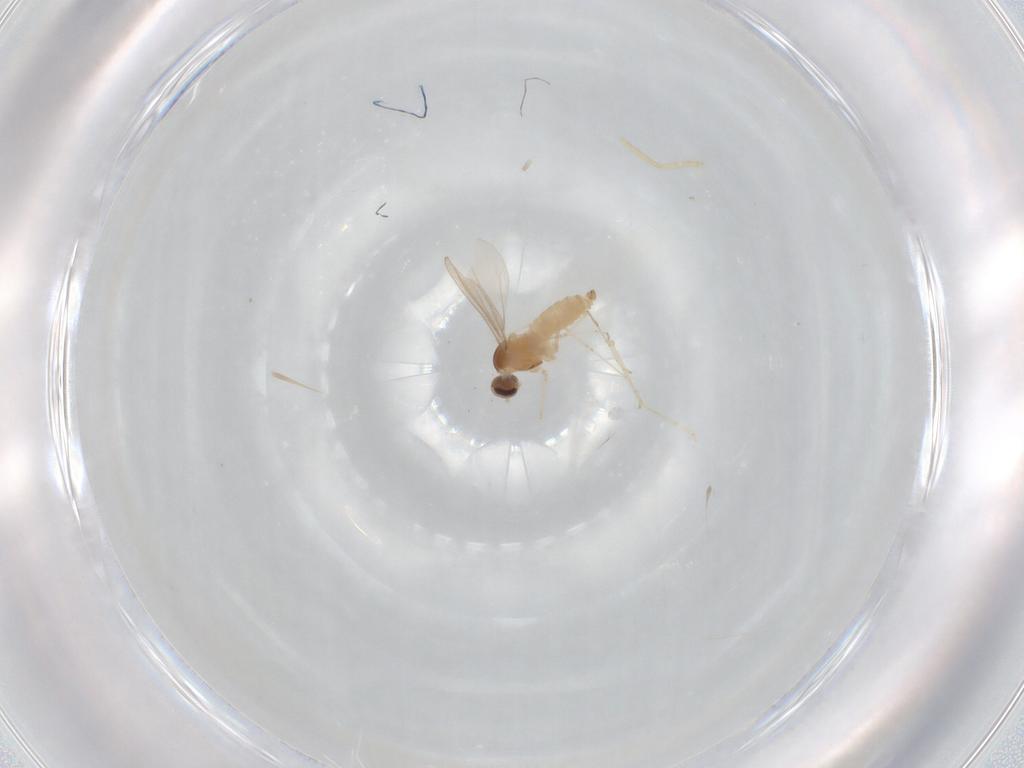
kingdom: Animalia
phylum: Arthropoda
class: Insecta
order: Diptera
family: Cecidomyiidae
